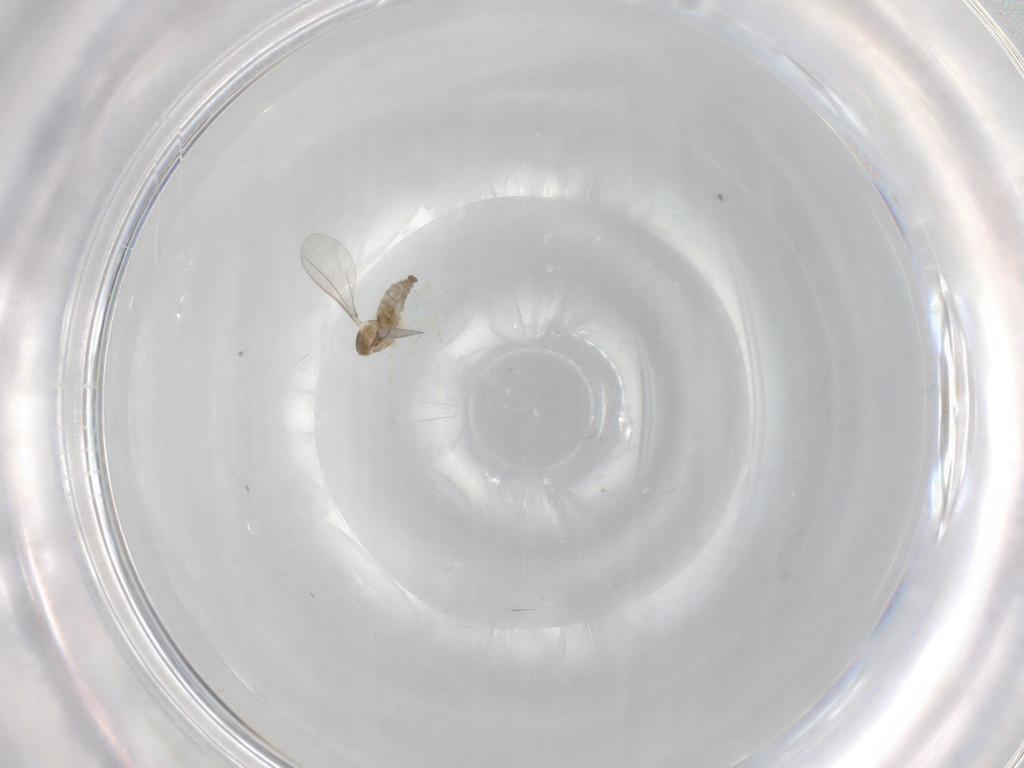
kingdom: Animalia
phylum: Arthropoda
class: Insecta
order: Diptera
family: Cecidomyiidae
